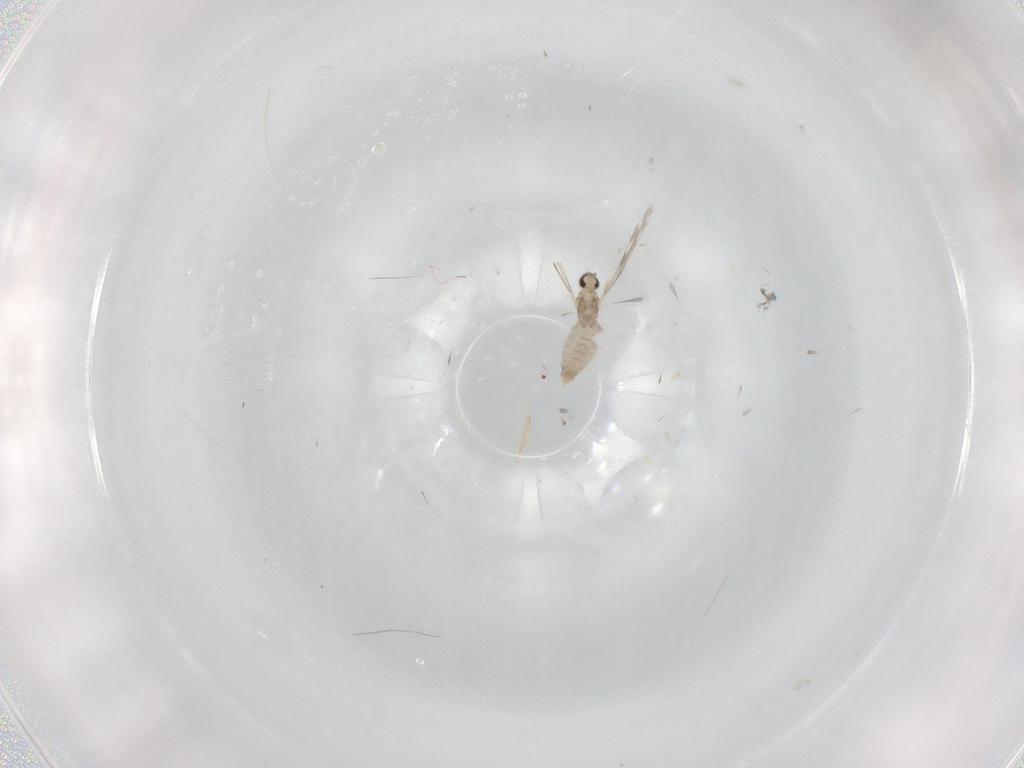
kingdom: Animalia
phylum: Arthropoda
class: Insecta
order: Diptera
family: Cecidomyiidae
